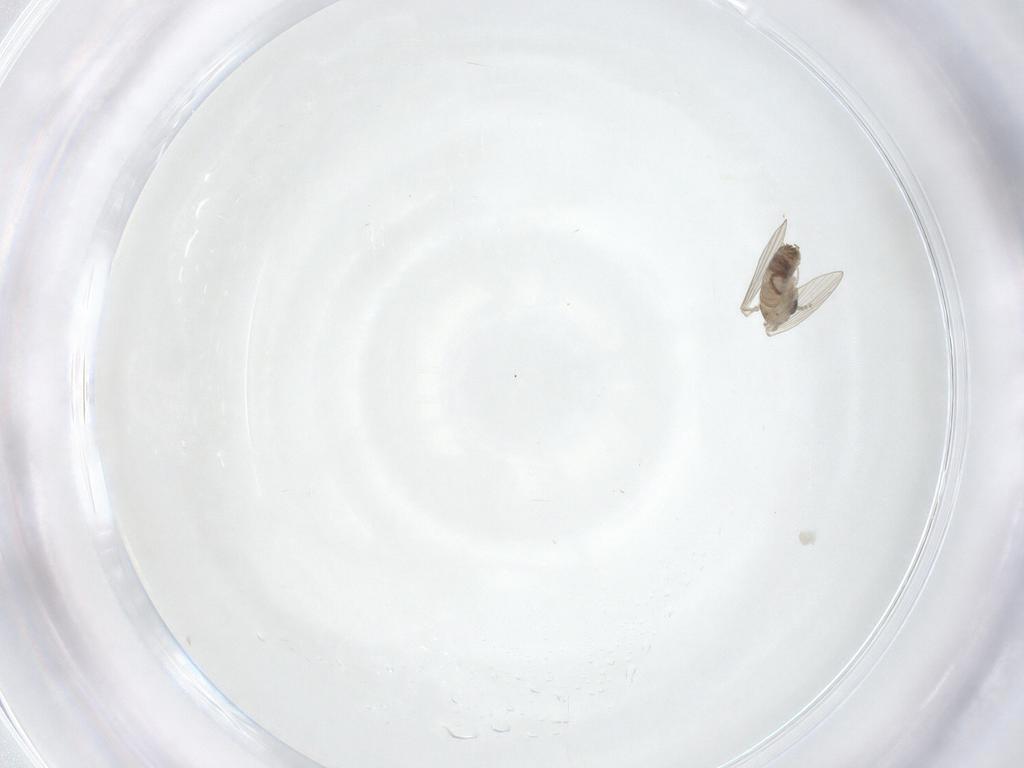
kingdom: Animalia
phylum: Arthropoda
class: Insecta
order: Diptera
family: Psychodidae
